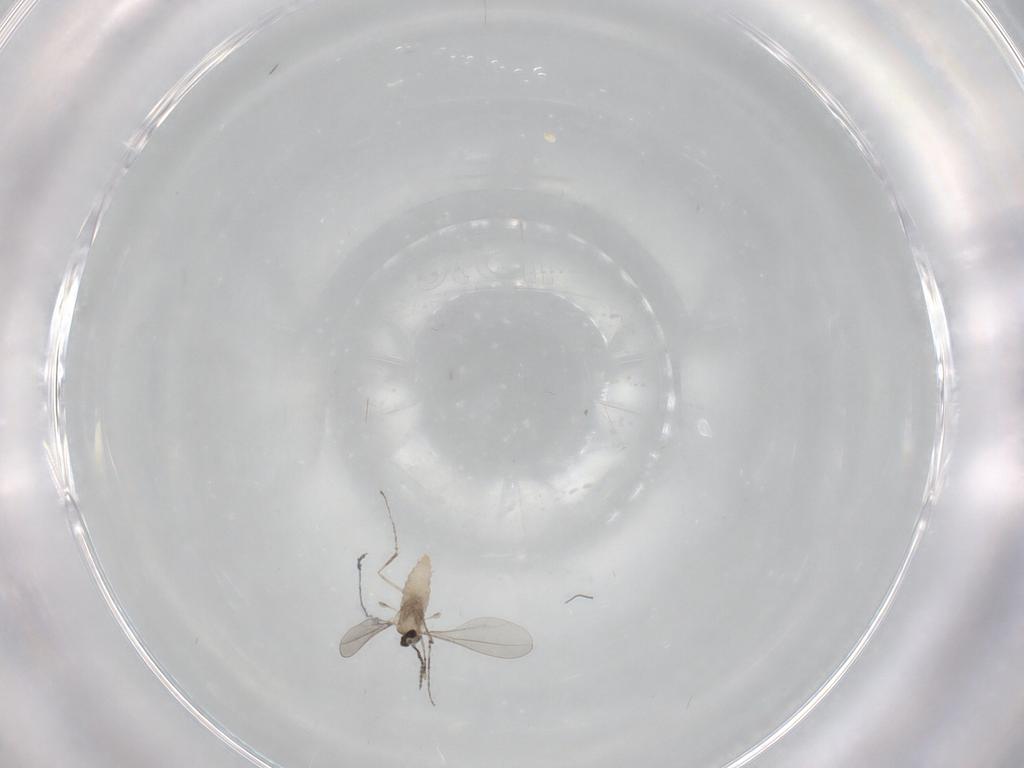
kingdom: Animalia
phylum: Arthropoda
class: Insecta
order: Diptera
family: Cecidomyiidae
